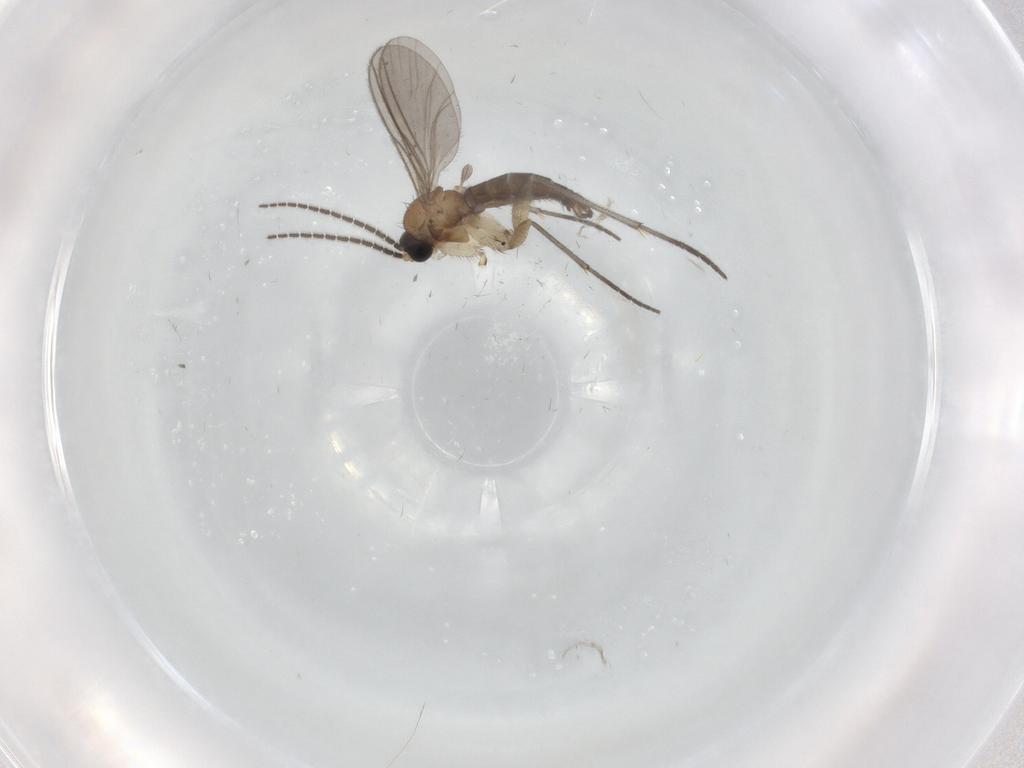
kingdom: Animalia
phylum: Arthropoda
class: Insecta
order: Diptera
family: Sciaridae
